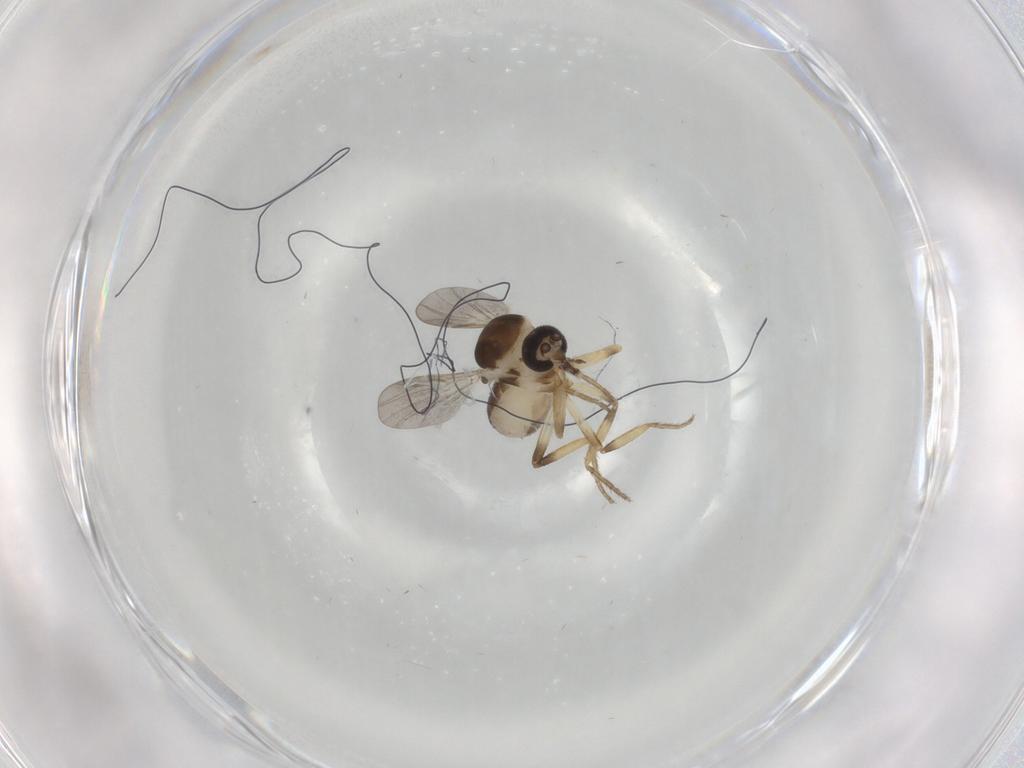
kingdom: Animalia
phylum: Arthropoda
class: Insecta
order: Diptera
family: Ceratopogonidae
